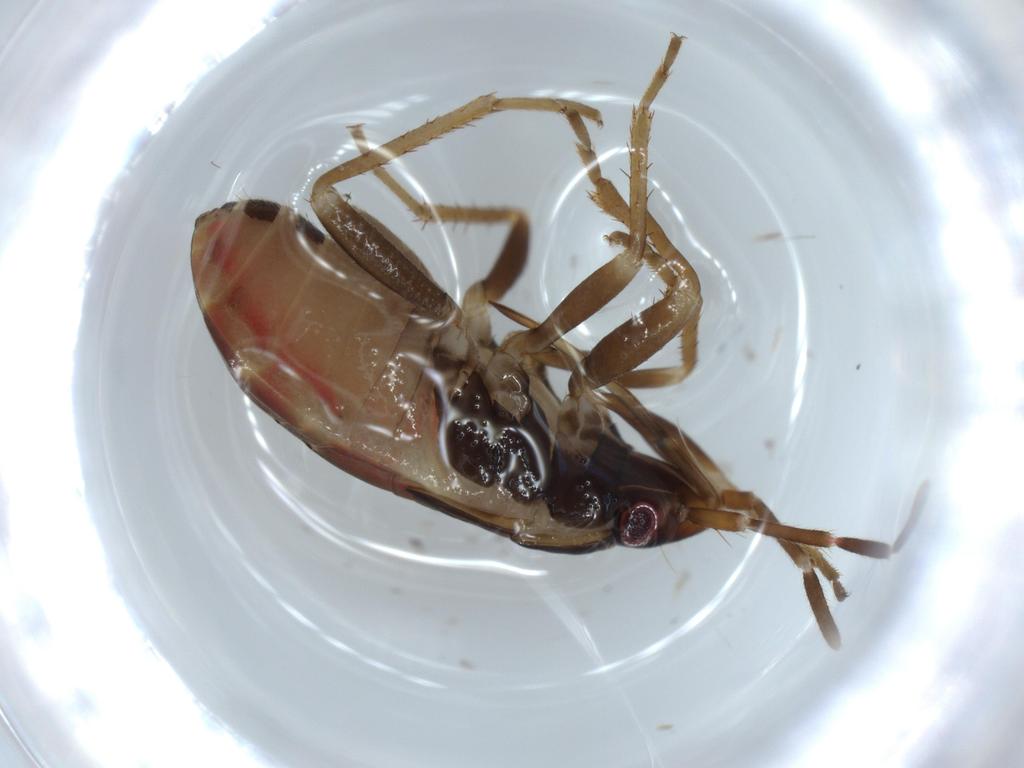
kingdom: Animalia
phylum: Arthropoda
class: Insecta
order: Hemiptera
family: Rhyparochromidae
